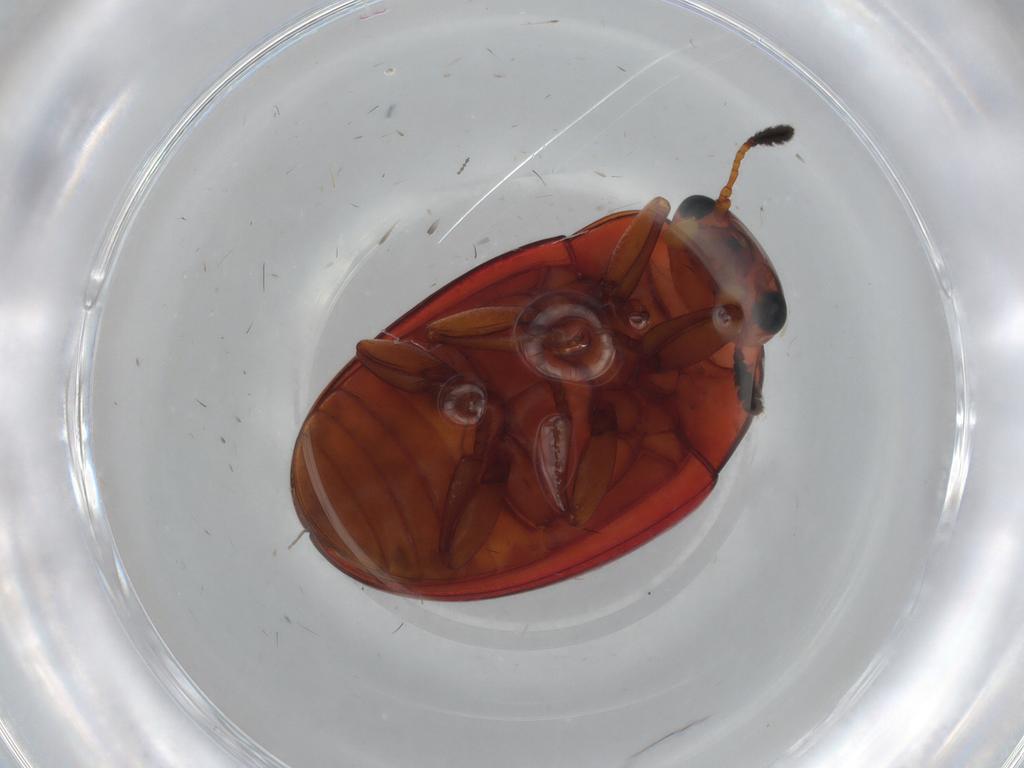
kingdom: Animalia
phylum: Arthropoda
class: Insecta
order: Coleoptera
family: Erotylidae
